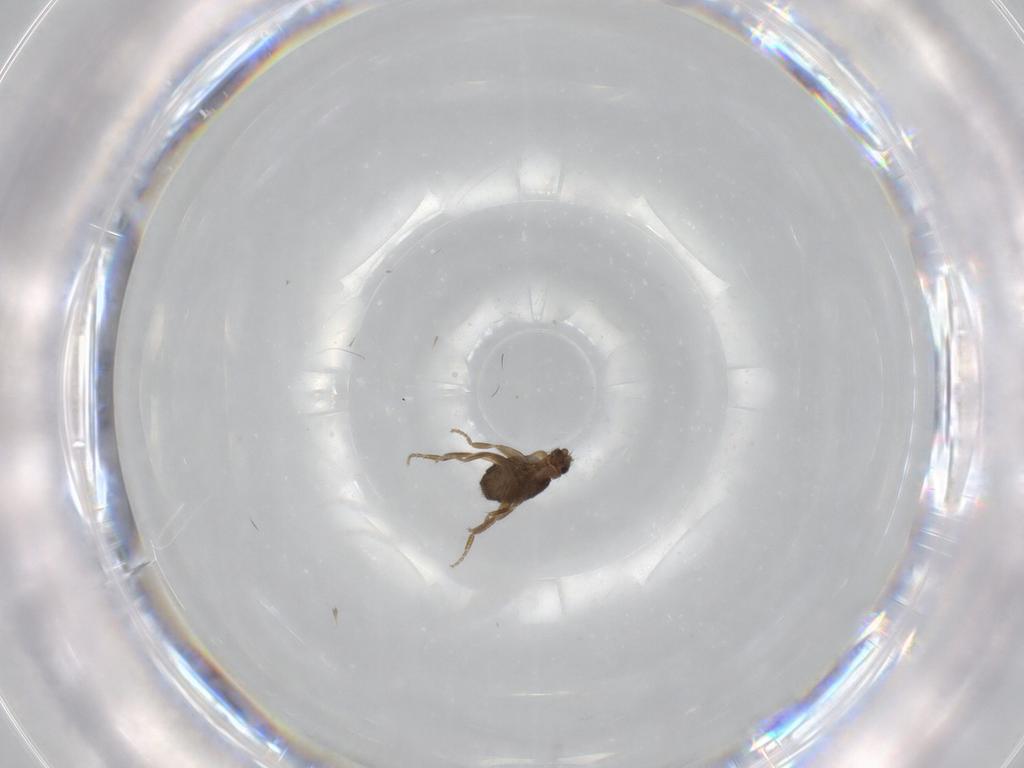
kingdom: Animalia
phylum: Arthropoda
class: Insecta
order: Diptera
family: Phoridae
